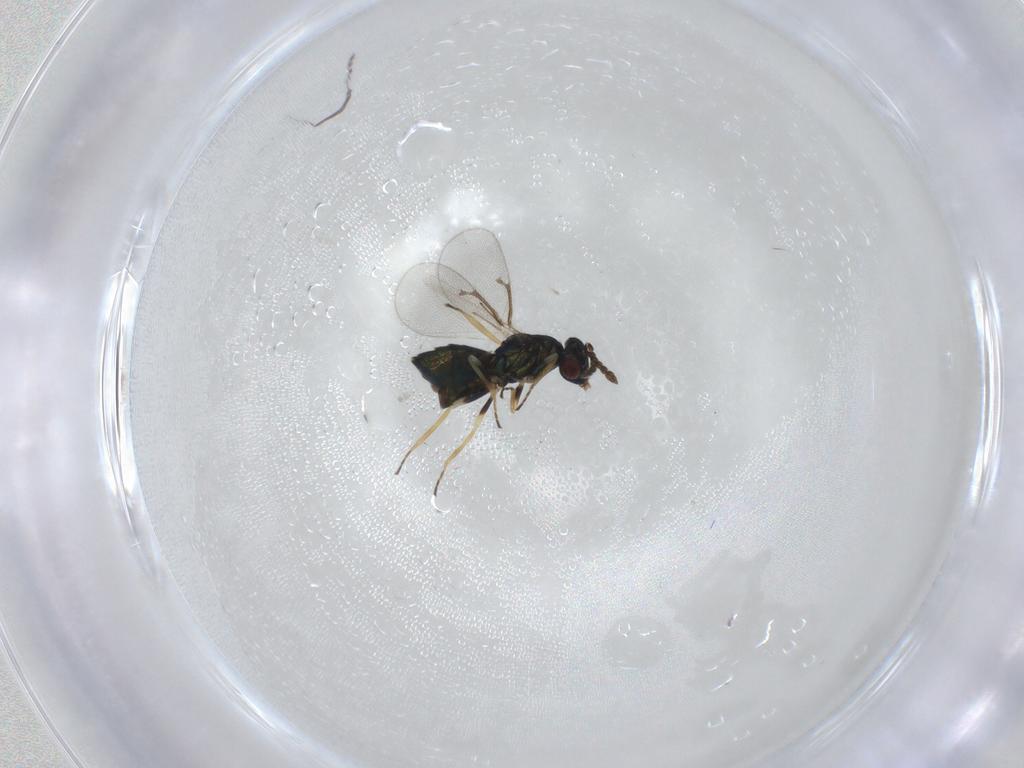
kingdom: Animalia
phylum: Arthropoda
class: Insecta
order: Hymenoptera
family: Eulophidae
